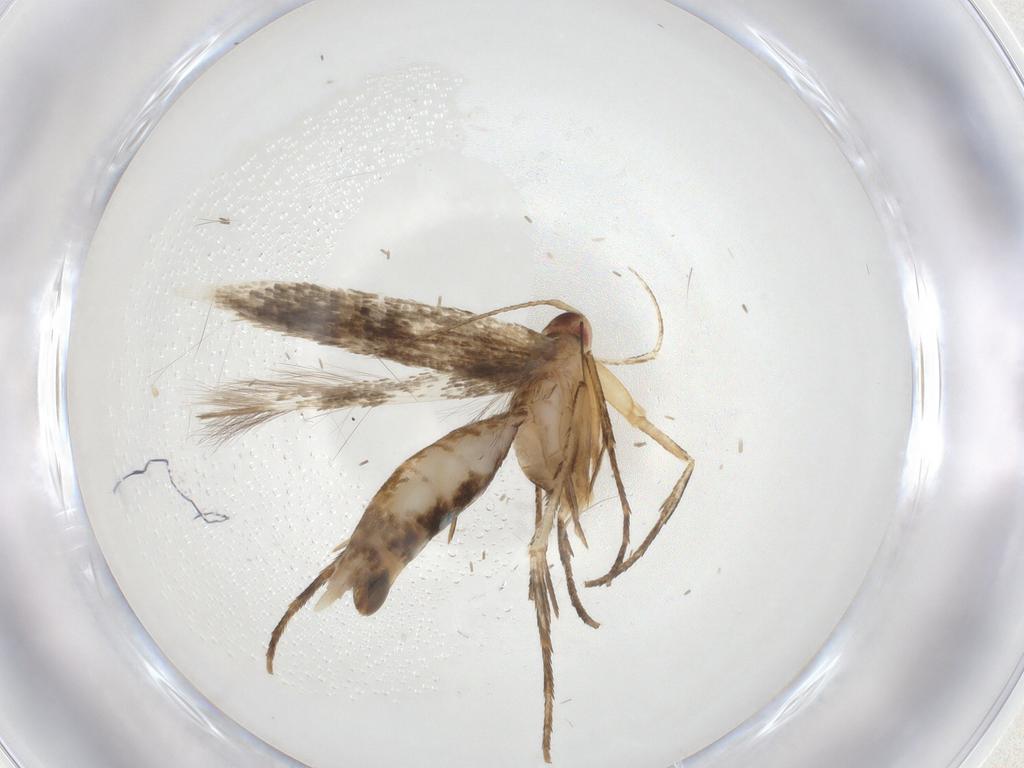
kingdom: Animalia
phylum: Arthropoda
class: Insecta
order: Lepidoptera
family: Cosmopterigidae
